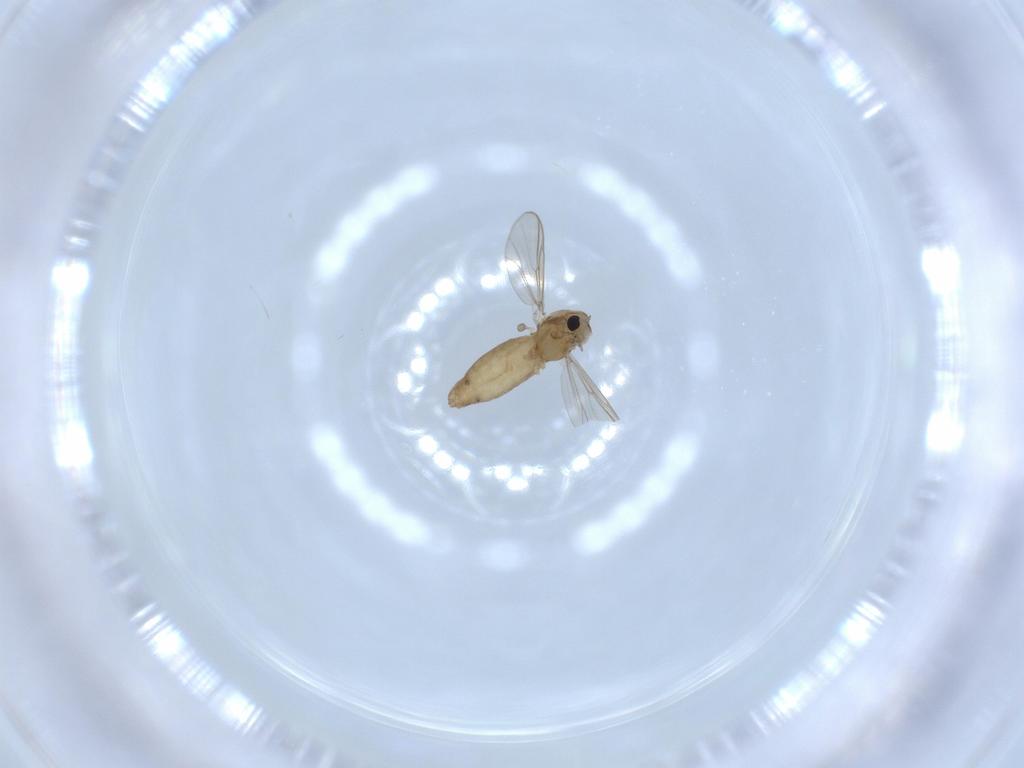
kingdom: Animalia
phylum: Arthropoda
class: Insecta
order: Diptera
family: Chironomidae
